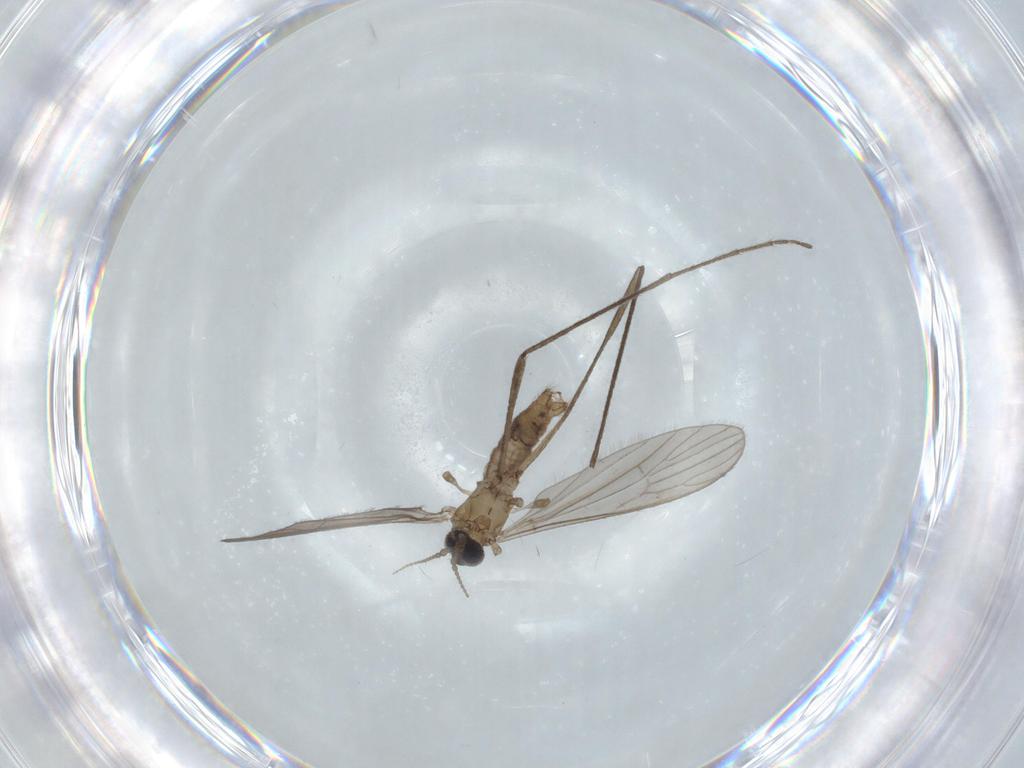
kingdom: Animalia
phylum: Arthropoda
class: Insecta
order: Diptera
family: Limoniidae
